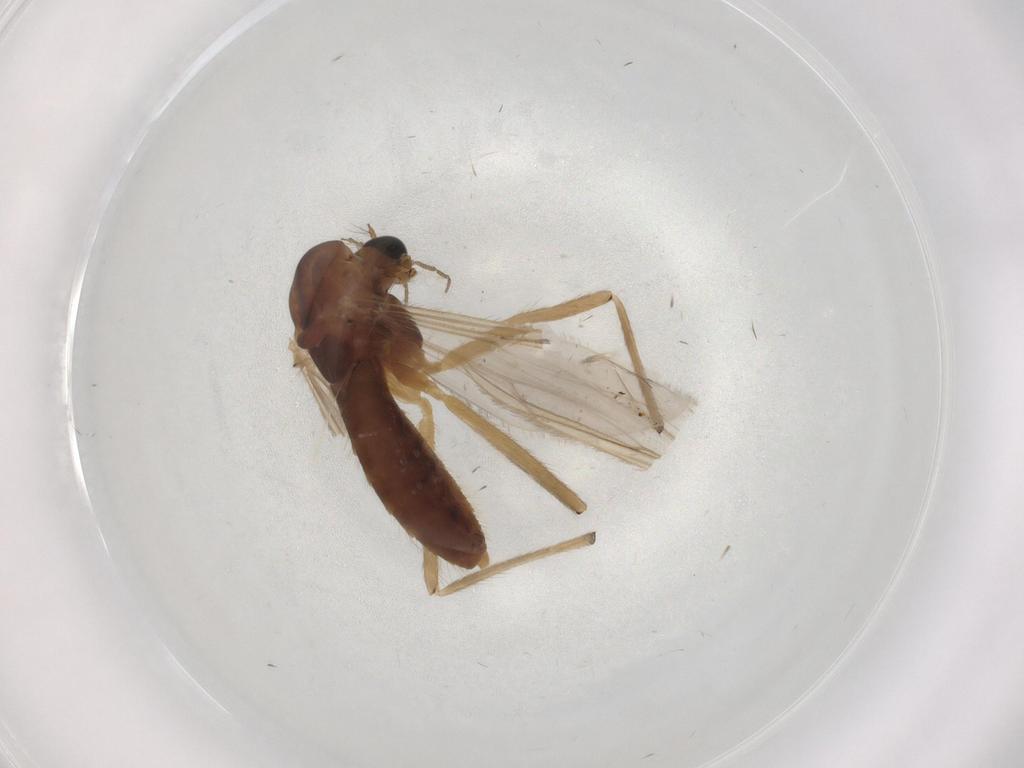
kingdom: Animalia
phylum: Arthropoda
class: Insecta
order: Diptera
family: Chironomidae
